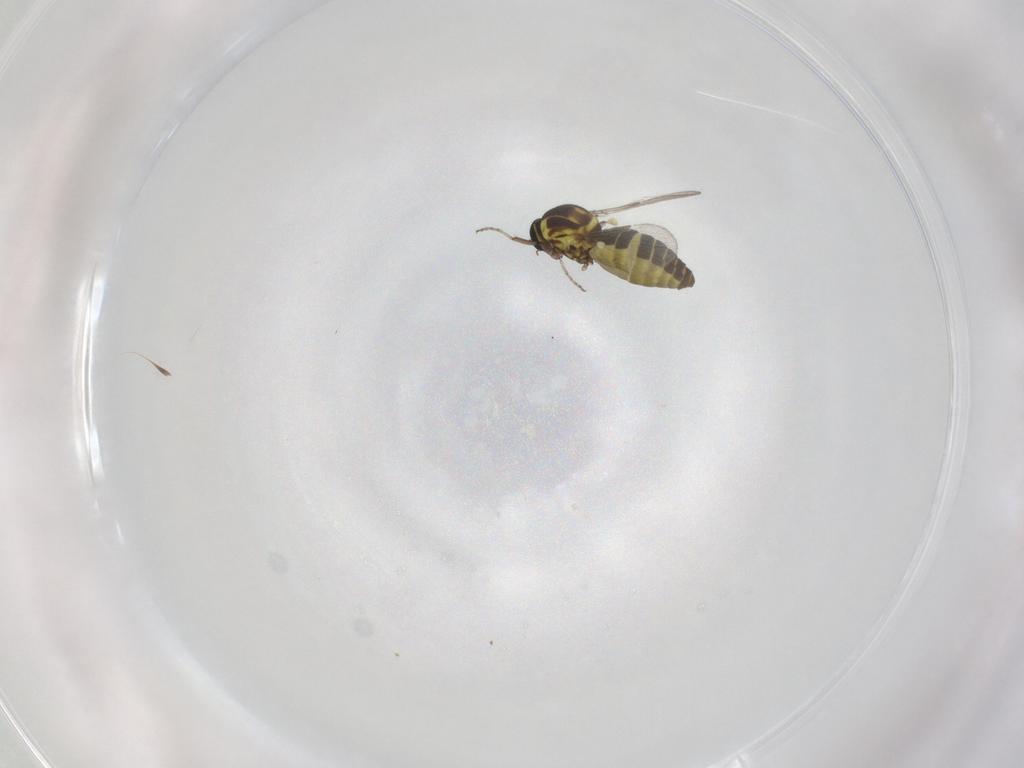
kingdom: Animalia
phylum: Arthropoda
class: Insecta
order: Diptera
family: Ceratopogonidae
